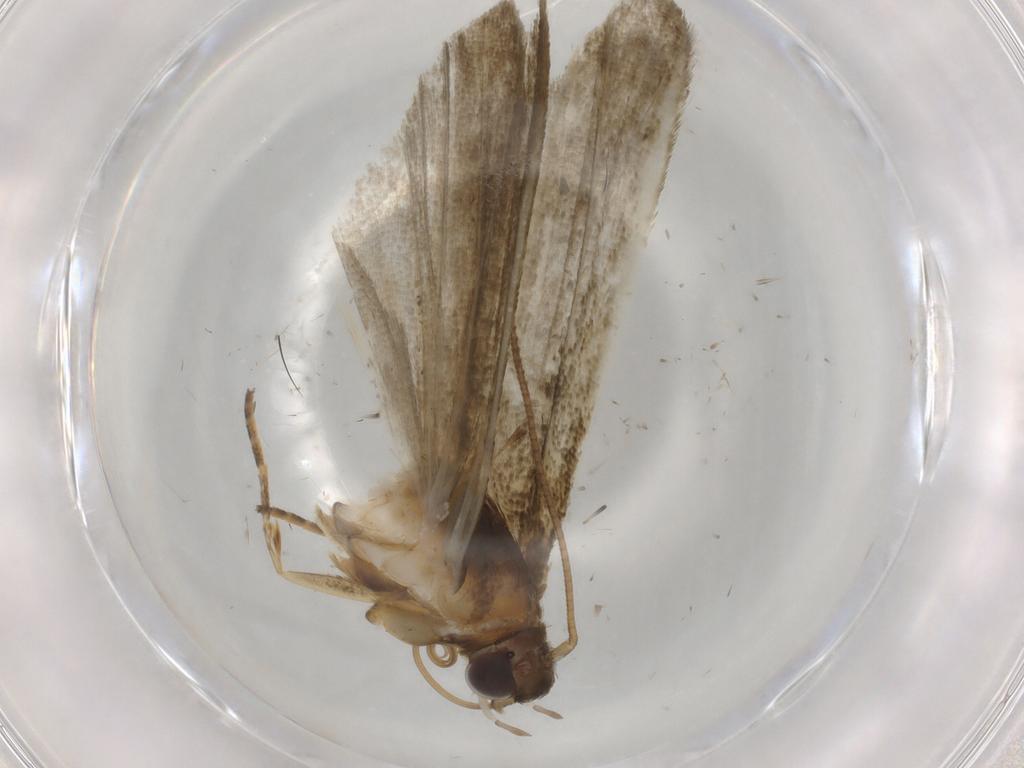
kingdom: Animalia
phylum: Arthropoda
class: Insecta
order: Lepidoptera
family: Noctuidae
